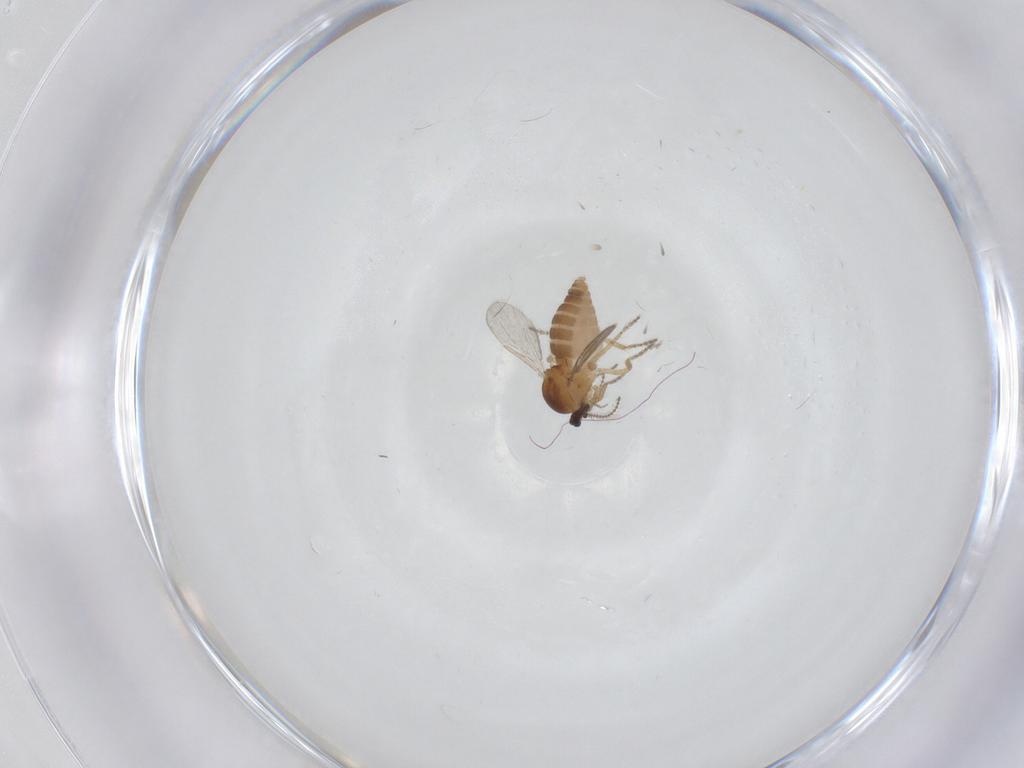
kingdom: Animalia
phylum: Arthropoda
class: Insecta
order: Diptera
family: Ceratopogonidae
